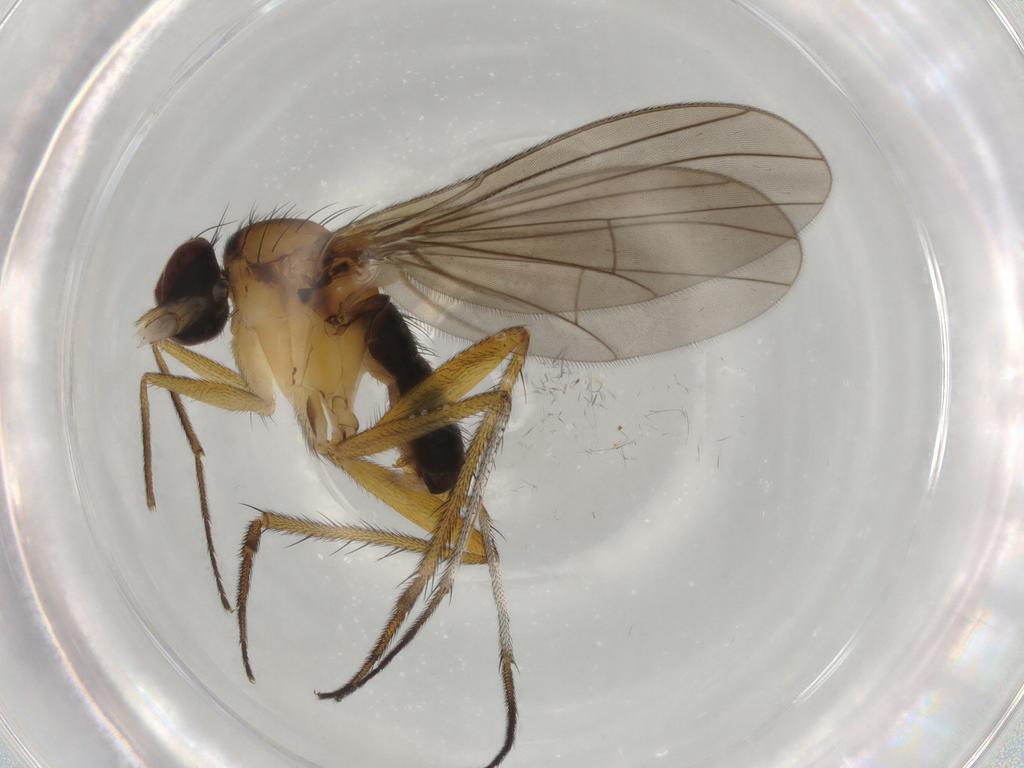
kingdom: Animalia
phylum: Arthropoda
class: Insecta
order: Diptera
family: Dolichopodidae
